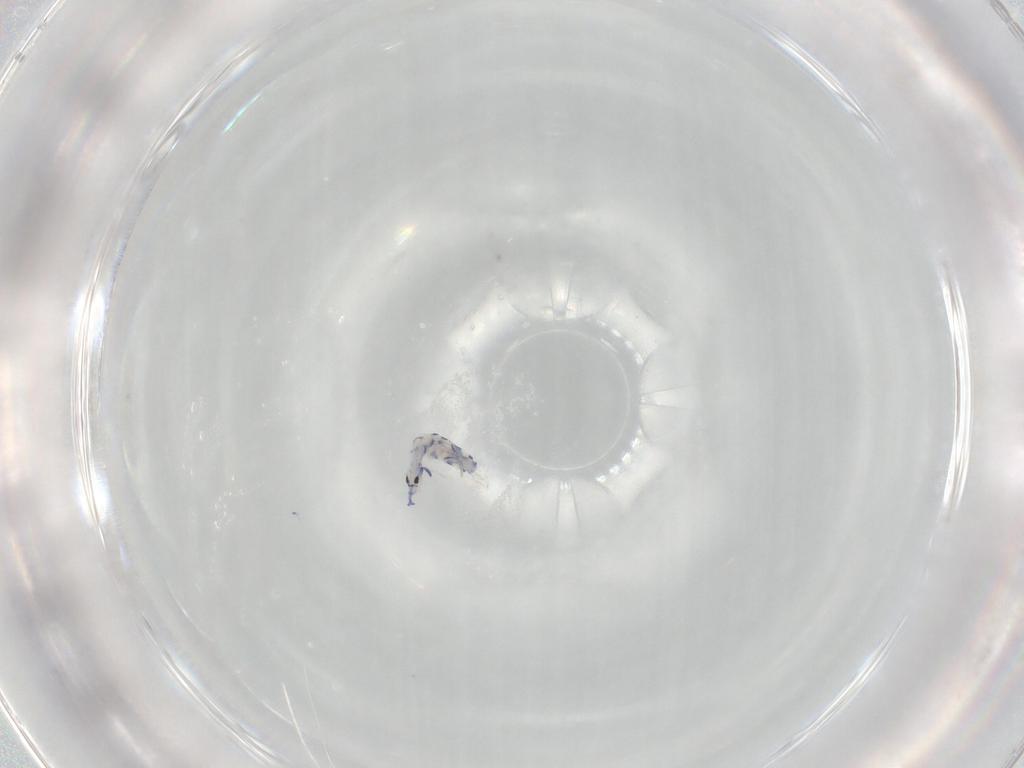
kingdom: Animalia
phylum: Arthropoda
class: Collembola
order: Entomobryomorpha
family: Entomobryidae
